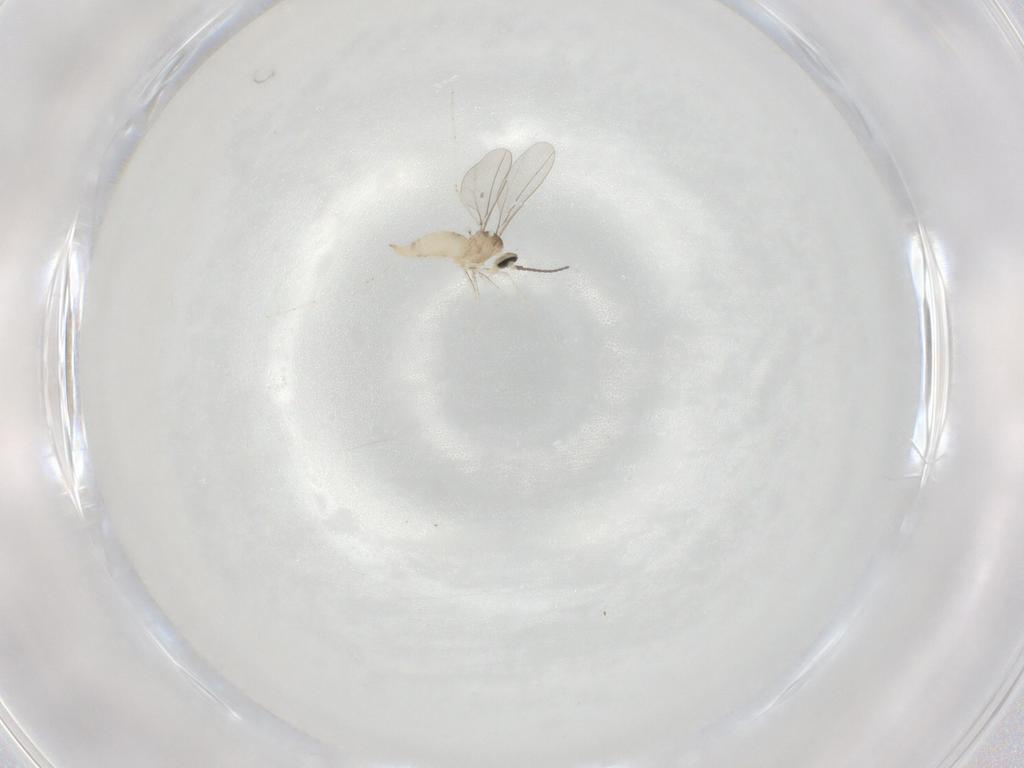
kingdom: Animalia
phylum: Arthropoda
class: Insecta
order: Diptera
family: Cecidomyiidae
